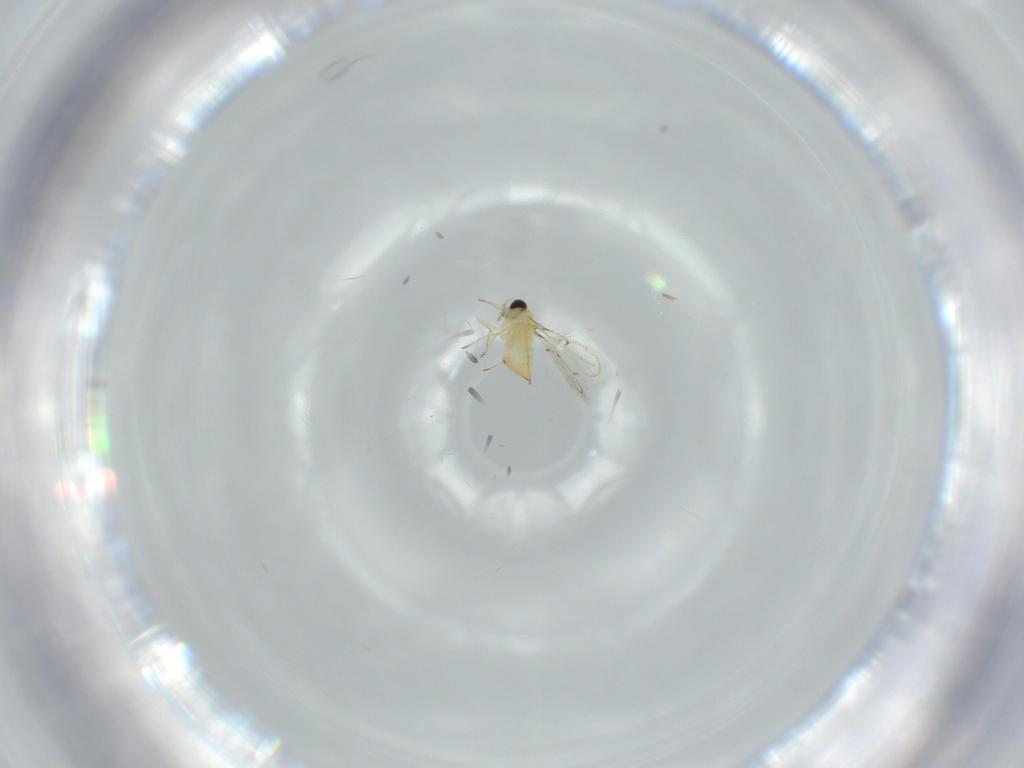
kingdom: Animalia
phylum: Arthropoda
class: Insecta
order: Hymenoptera
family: Trichogrammatidae
